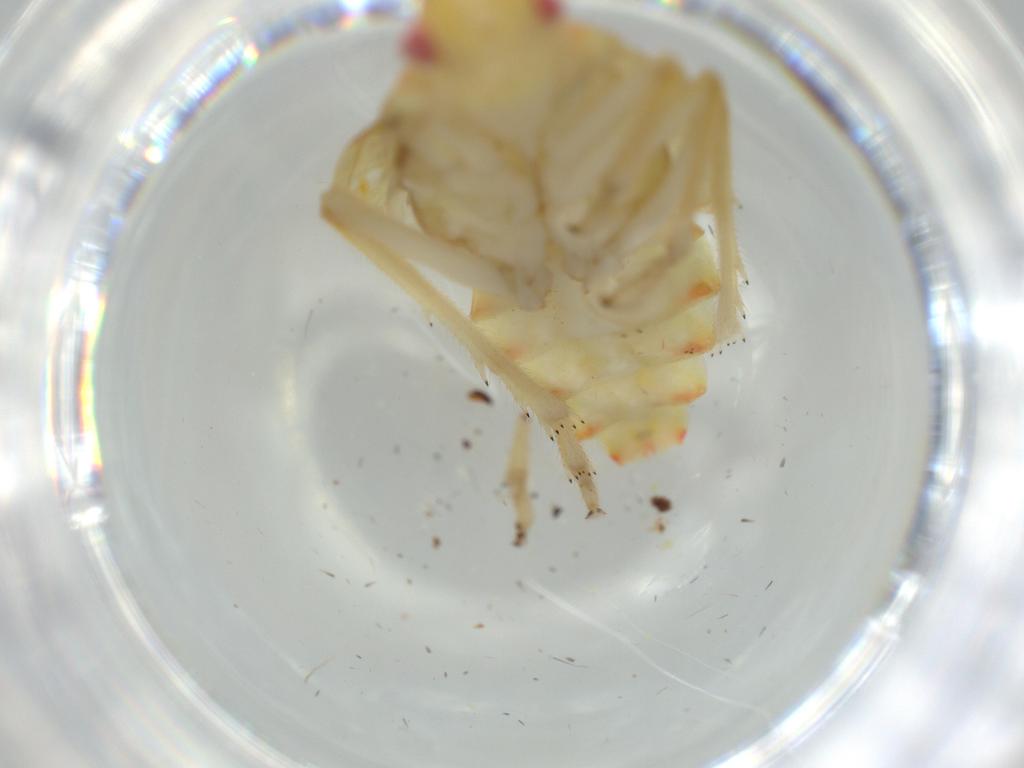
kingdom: Animalia
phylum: Arthropoda
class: Insecta
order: Hemiptera
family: Tropiduchidae
